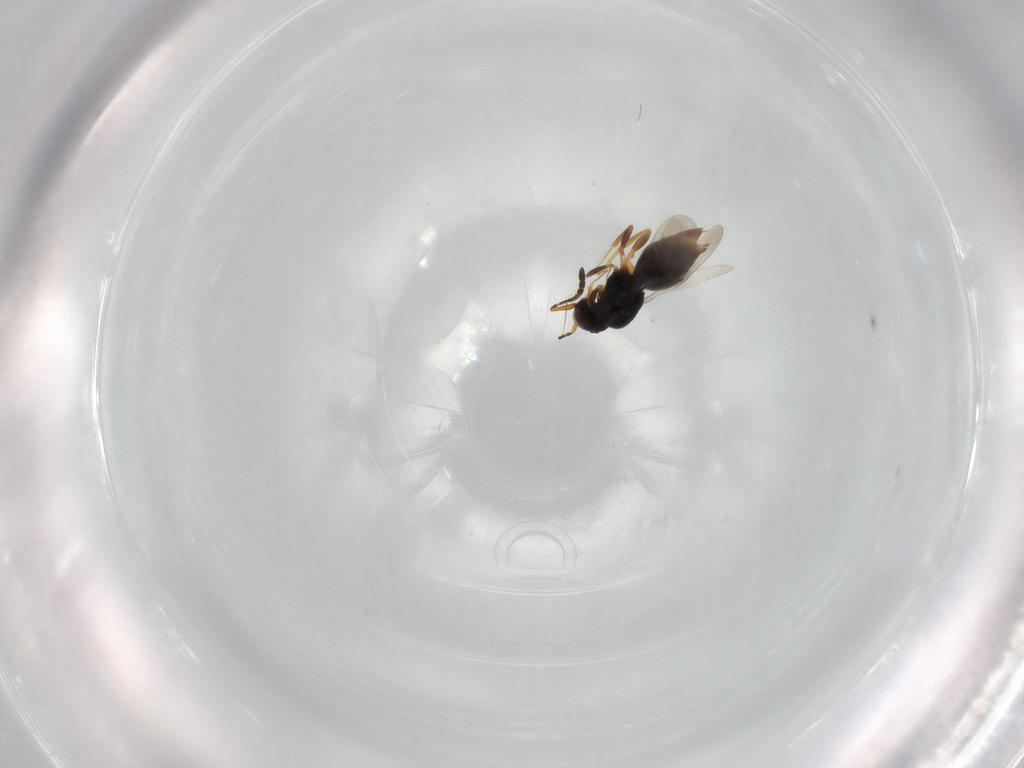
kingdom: Animalia
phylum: Arthropoda
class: Insecta
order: Hymenoptera
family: Ceraphronidae
